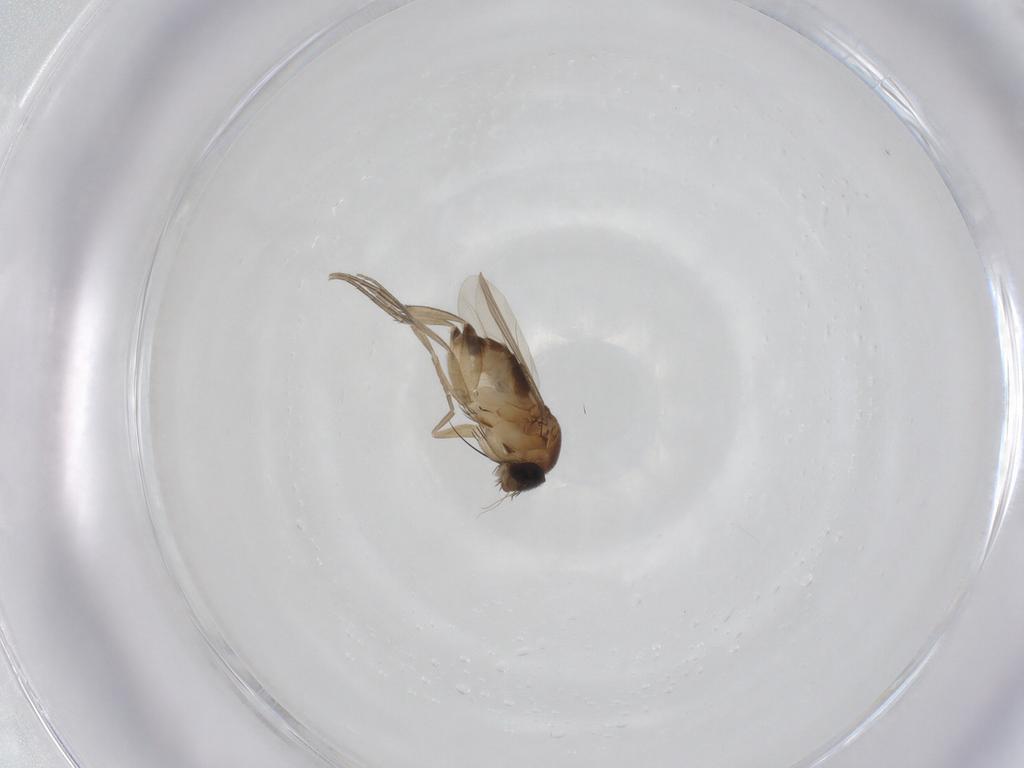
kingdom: Animalia
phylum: Arthropoda
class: Insecta
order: Diptera
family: Phoridae
